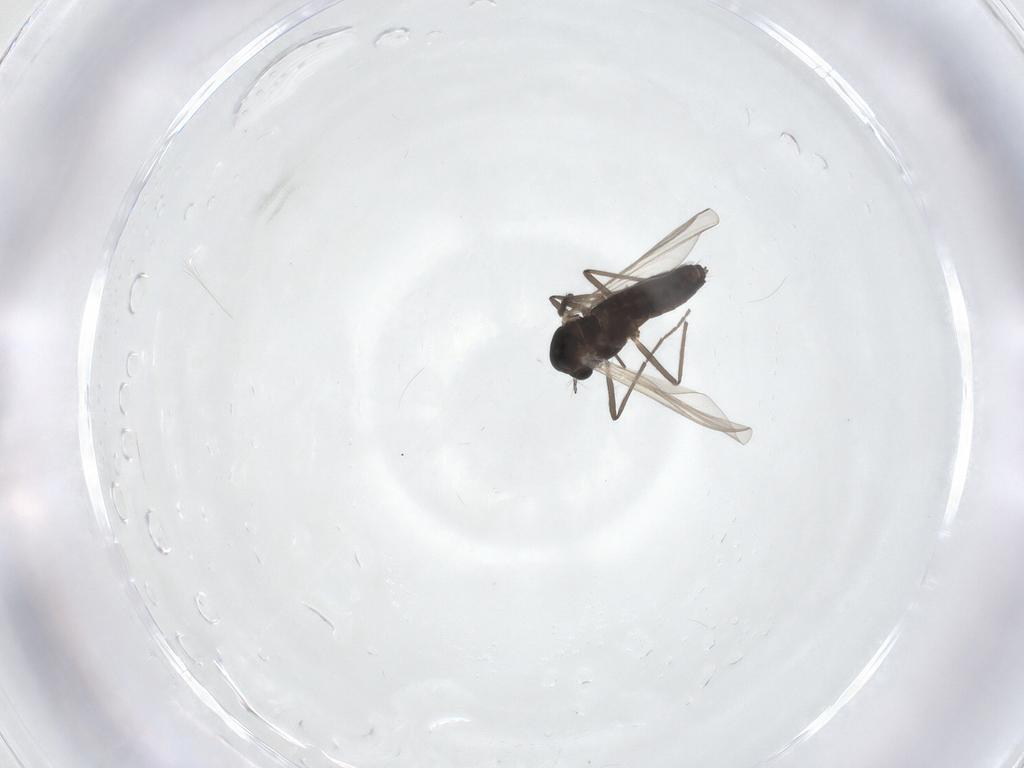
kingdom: Animalia
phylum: Arthropoda
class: Insecta
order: Diptera
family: Chironomidae
